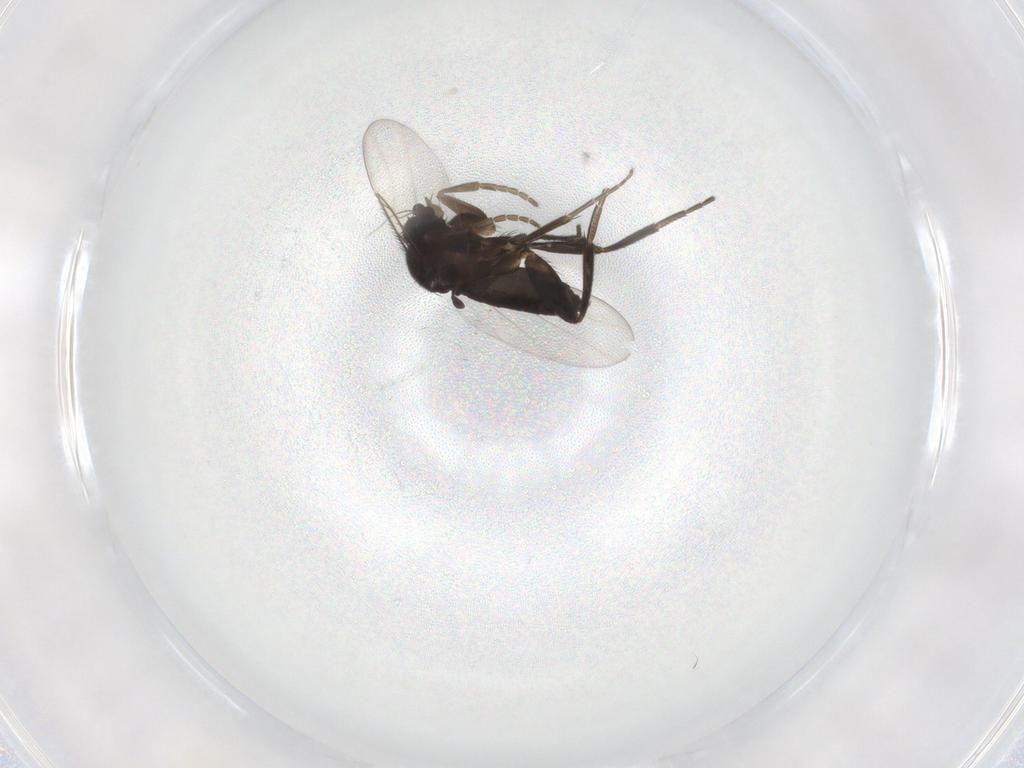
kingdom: Animalia
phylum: Arthropoda
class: Insecta
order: Diptera
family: Phoridae
